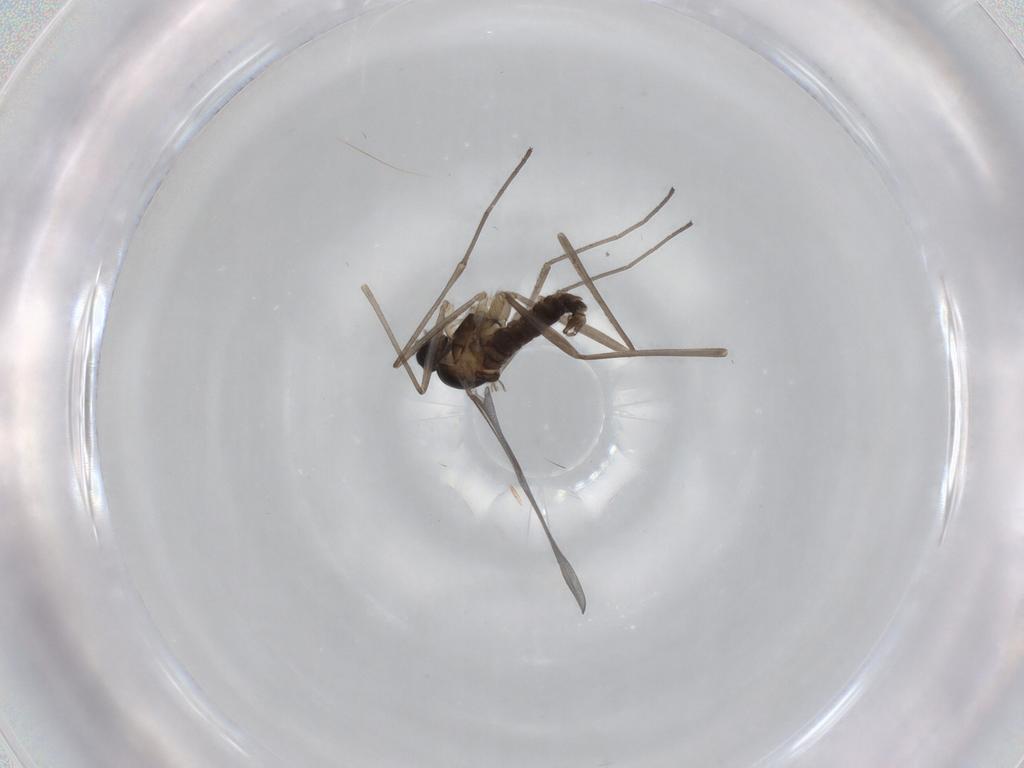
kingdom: Animalia
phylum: Arthropoda
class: Insecta
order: Diptera
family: Cecidomyiidae
